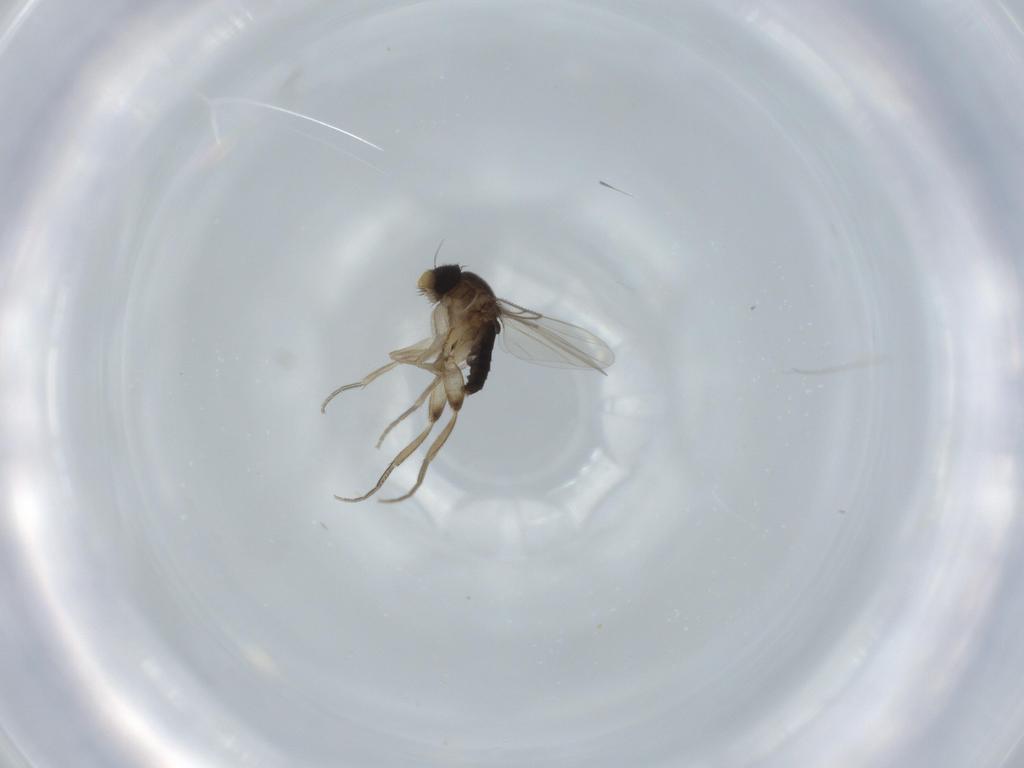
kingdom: Animalia
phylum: Arthropoda
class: Insecta
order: Diptera
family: Phoridae
